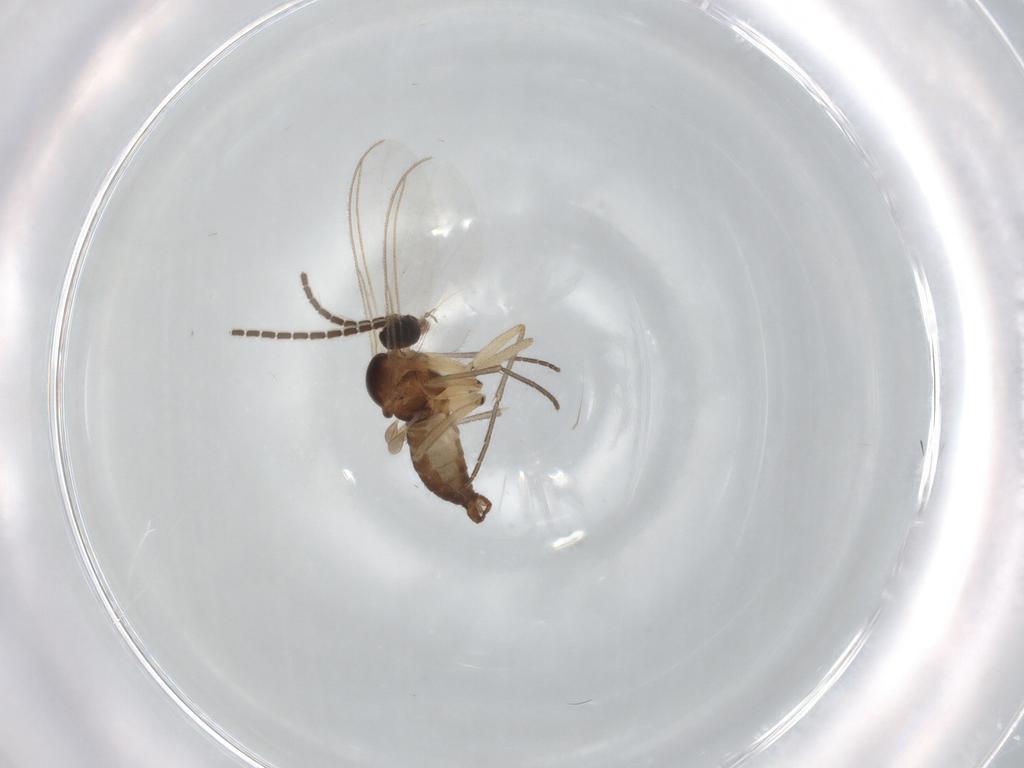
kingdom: Animalia
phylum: Arthropoda
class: Insecta
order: Diptera
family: Sciaridae
